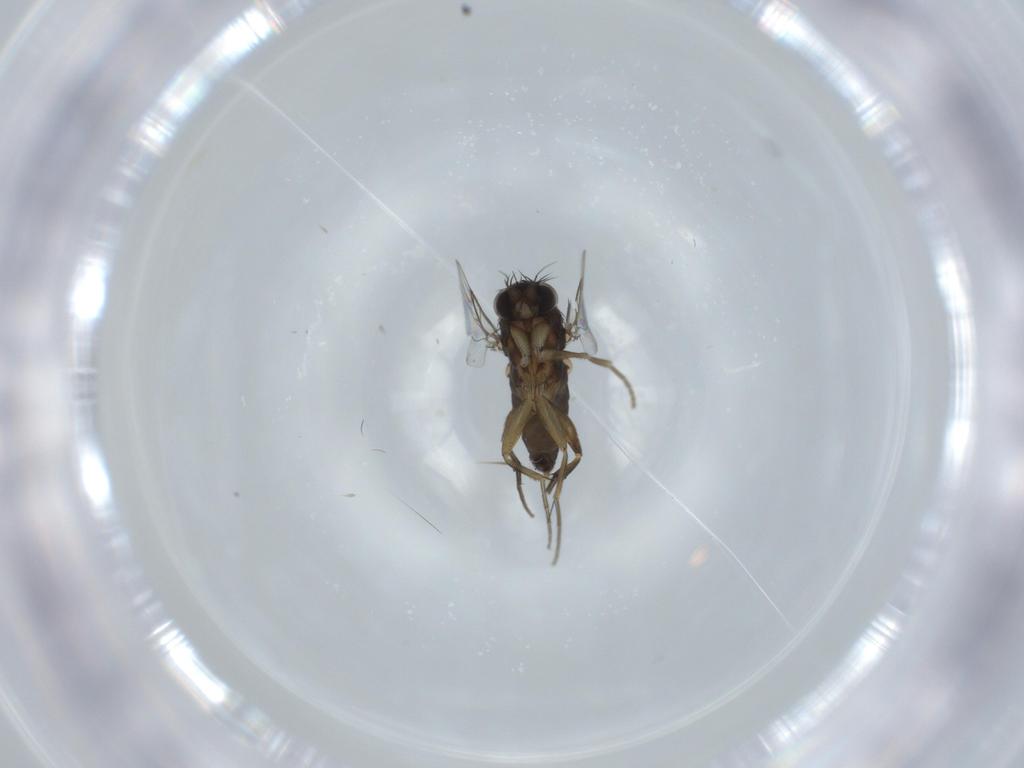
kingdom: Animalia
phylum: Arthropoda
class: Insecta
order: Diptera
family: Phoridae
